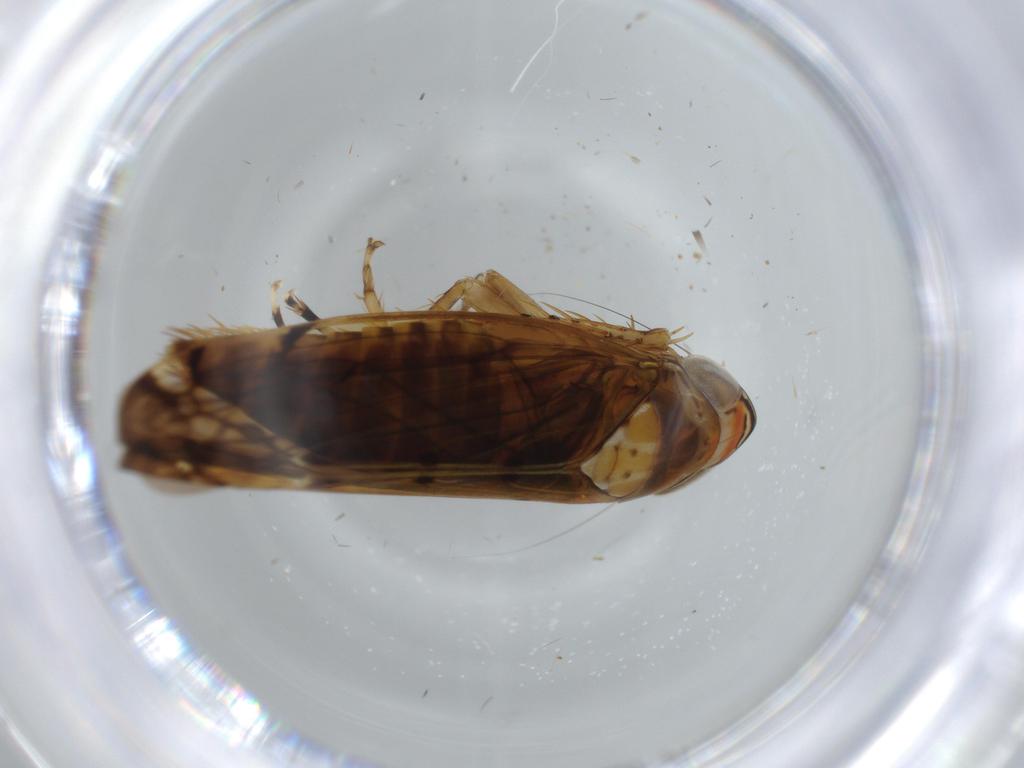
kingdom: Animalia
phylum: Arthropoda
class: Insecta
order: Hemiptera
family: Cicadellidae
